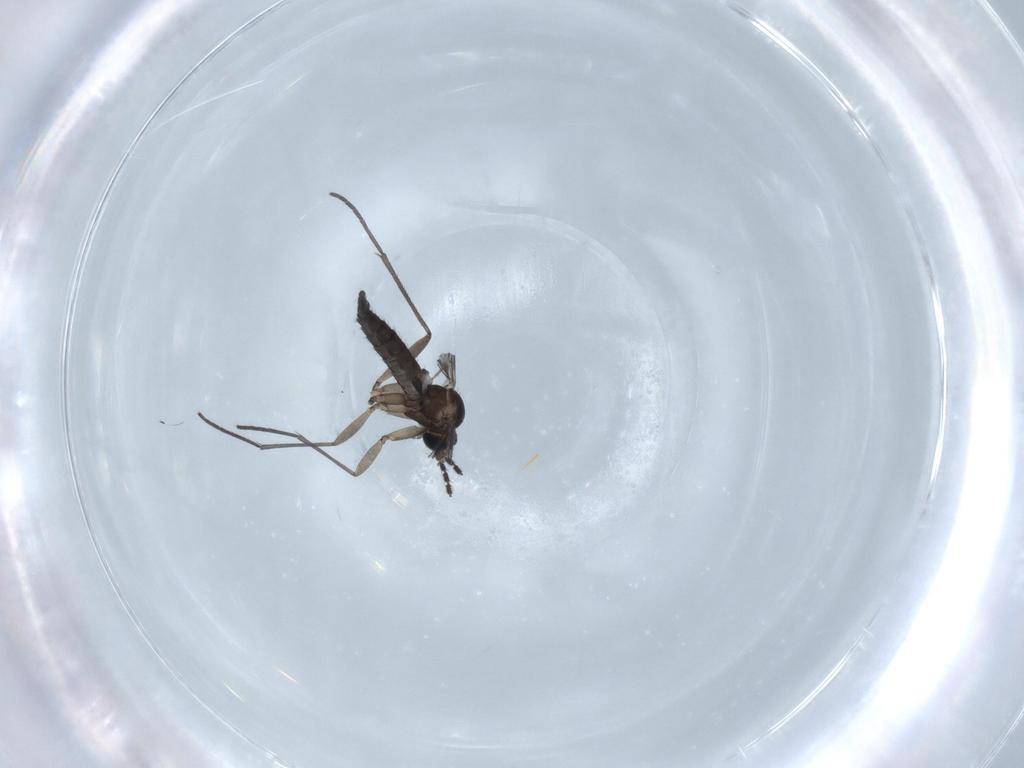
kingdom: Animalia
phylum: Arthropoda
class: Insecta
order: Diptera
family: Sciaridae
